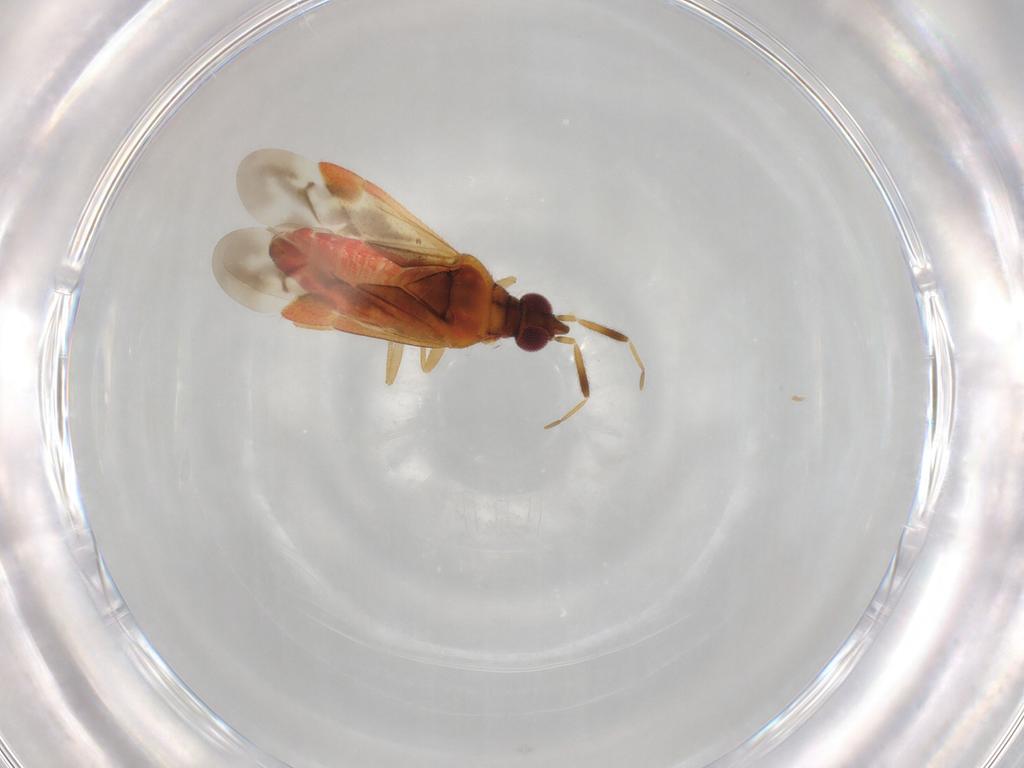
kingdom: Animalia
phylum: Arthropoda
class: Insecta
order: Hemiptera
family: Miridae
